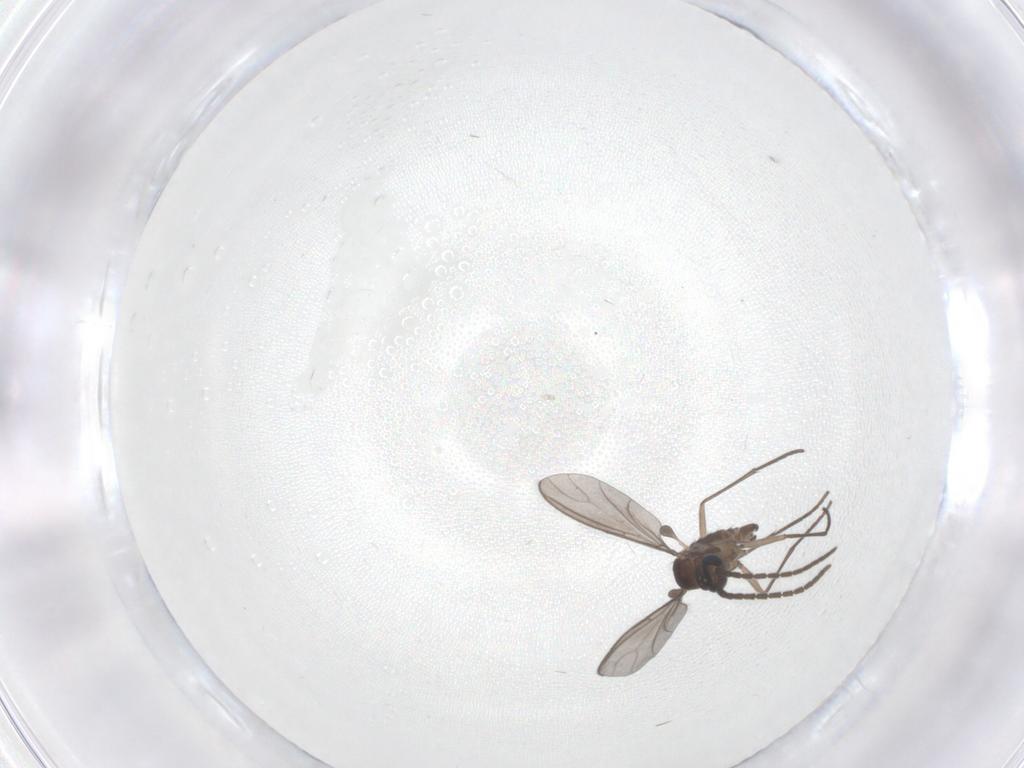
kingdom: Animalia
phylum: Arthropoda
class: Insecta
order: Diptera
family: Sciaridae
